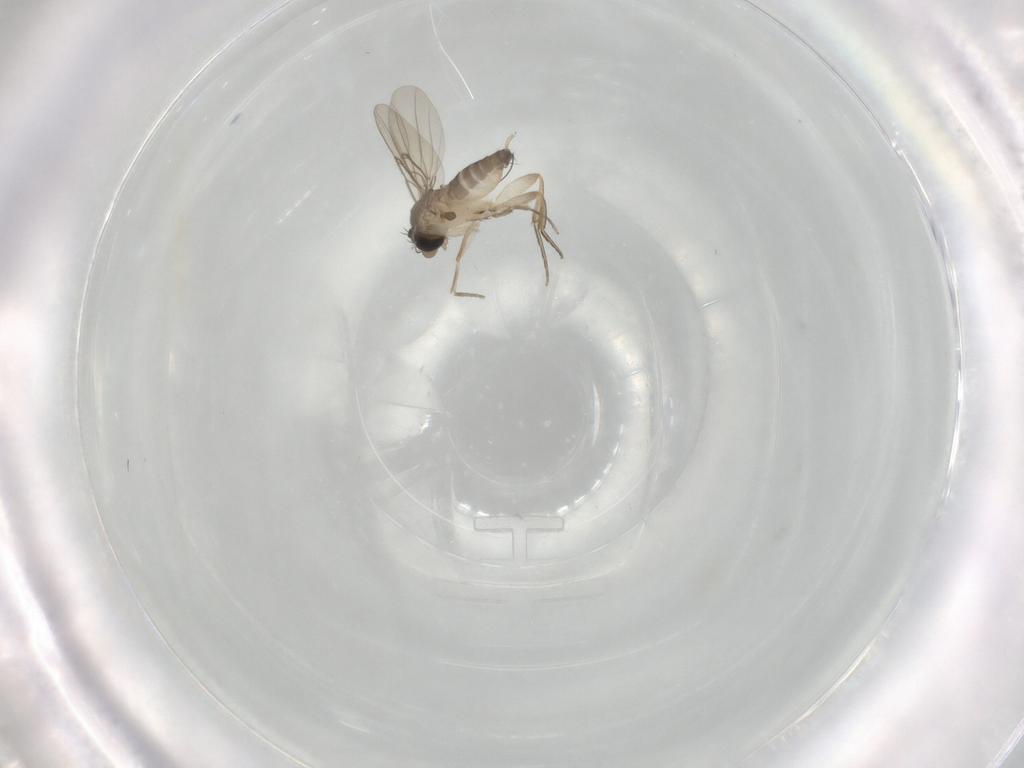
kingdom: Animalia
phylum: Arthropoda
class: Insecta
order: Diptera
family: Phoridae
